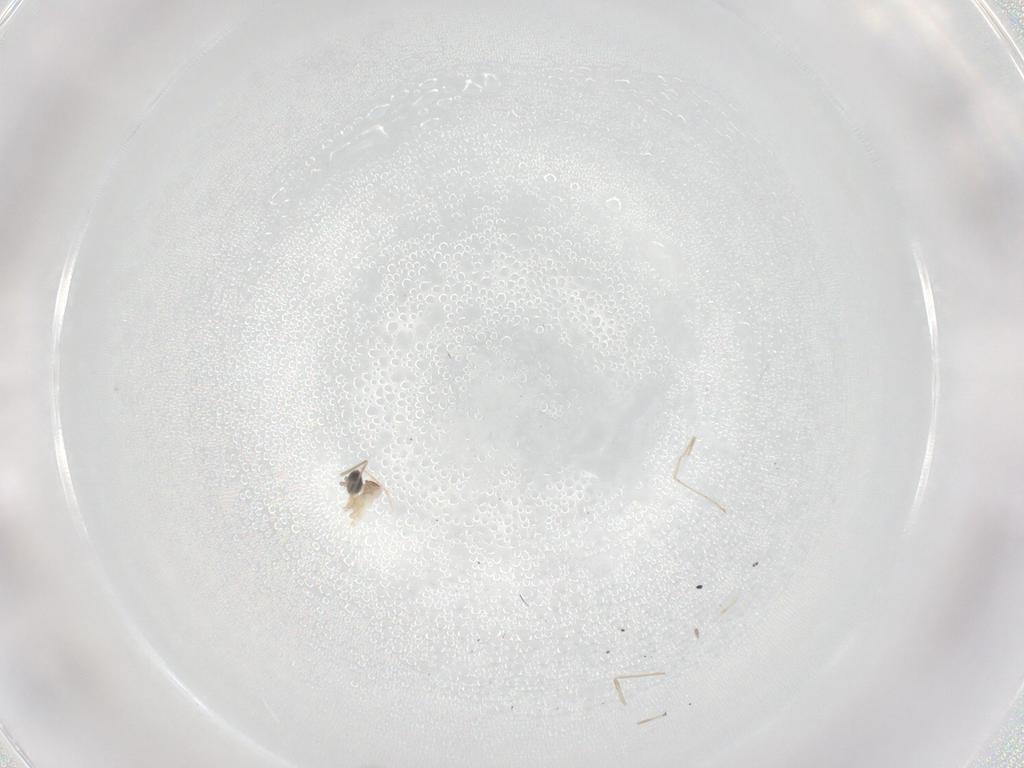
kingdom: Animalia
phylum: Arthropoda
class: Insecta
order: Diptera
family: Cecidomyiidae
